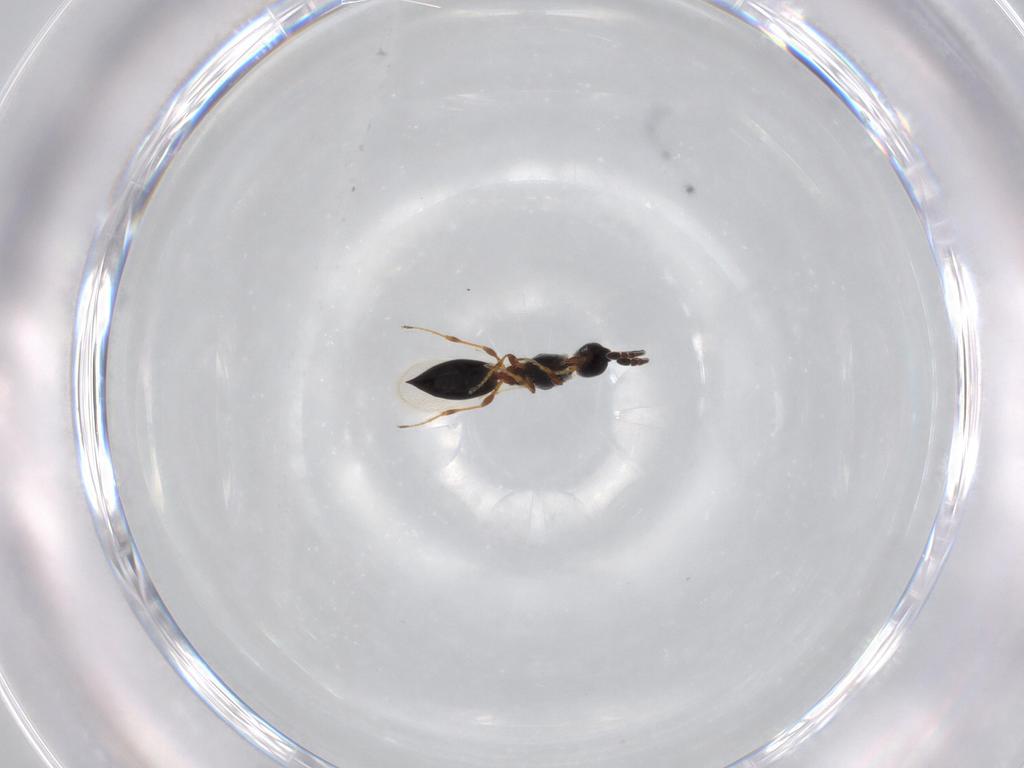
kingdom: Animalia
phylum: Arthropoda
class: Insecta
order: Hymenoptera
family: Diapriidae
